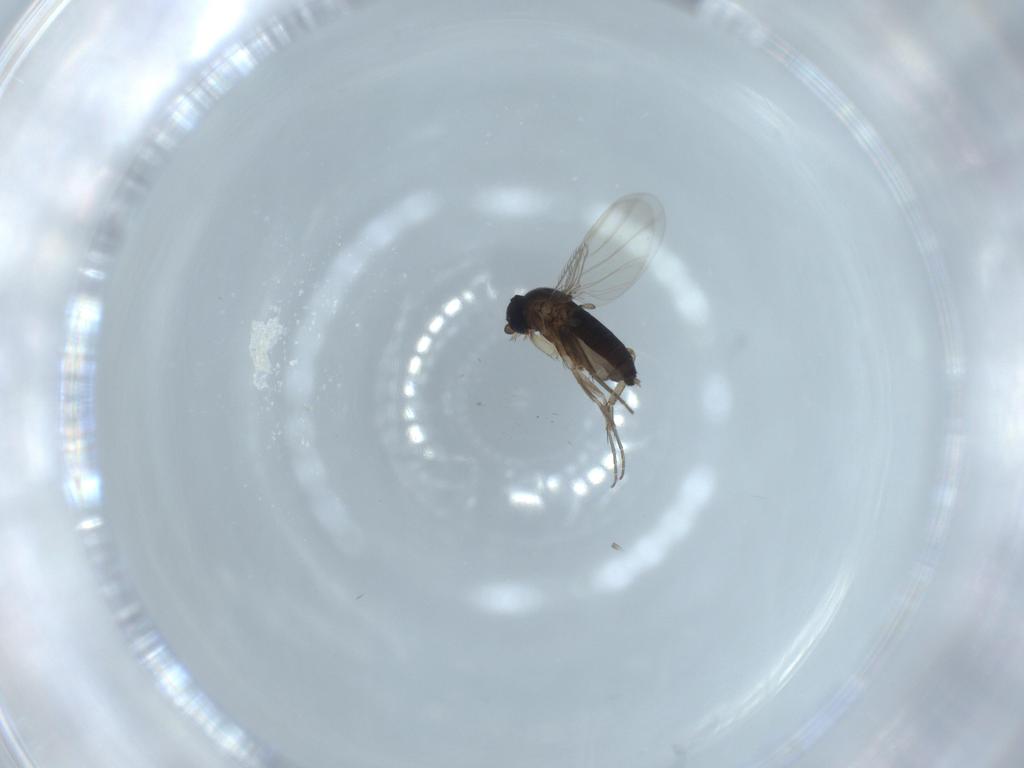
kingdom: Animalia
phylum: Arthropoda
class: Insecta
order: Diptera
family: Phoridae
